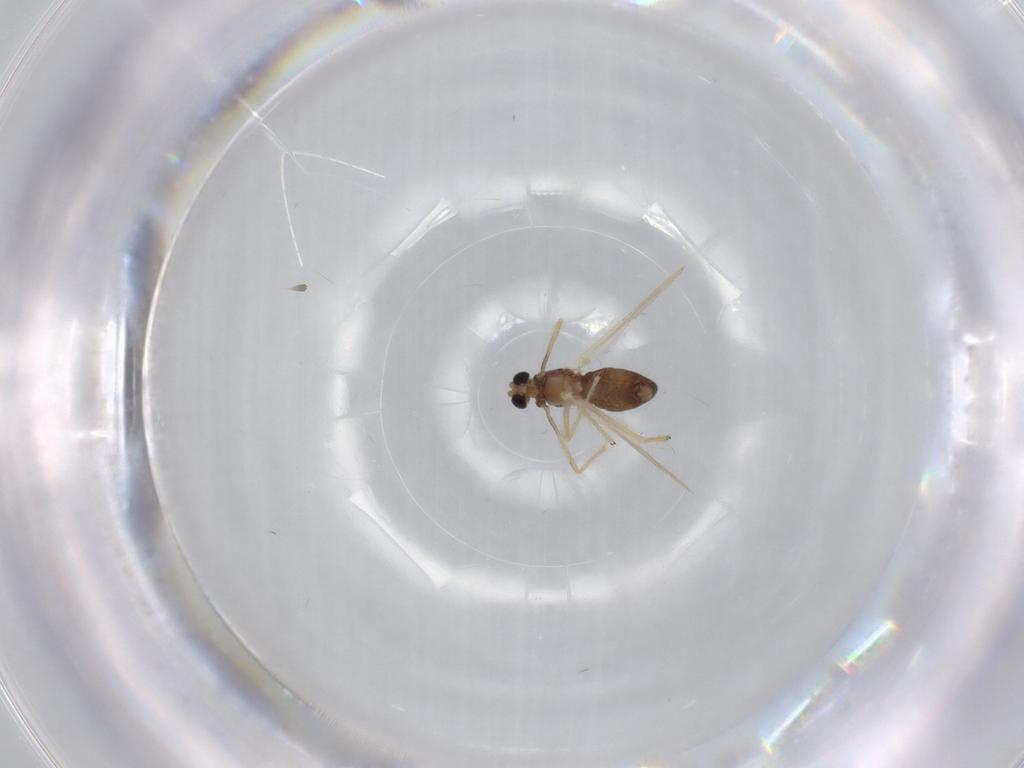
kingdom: Animalia
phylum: Arthropoda
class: Insecta
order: Diptera
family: Chironomidae
